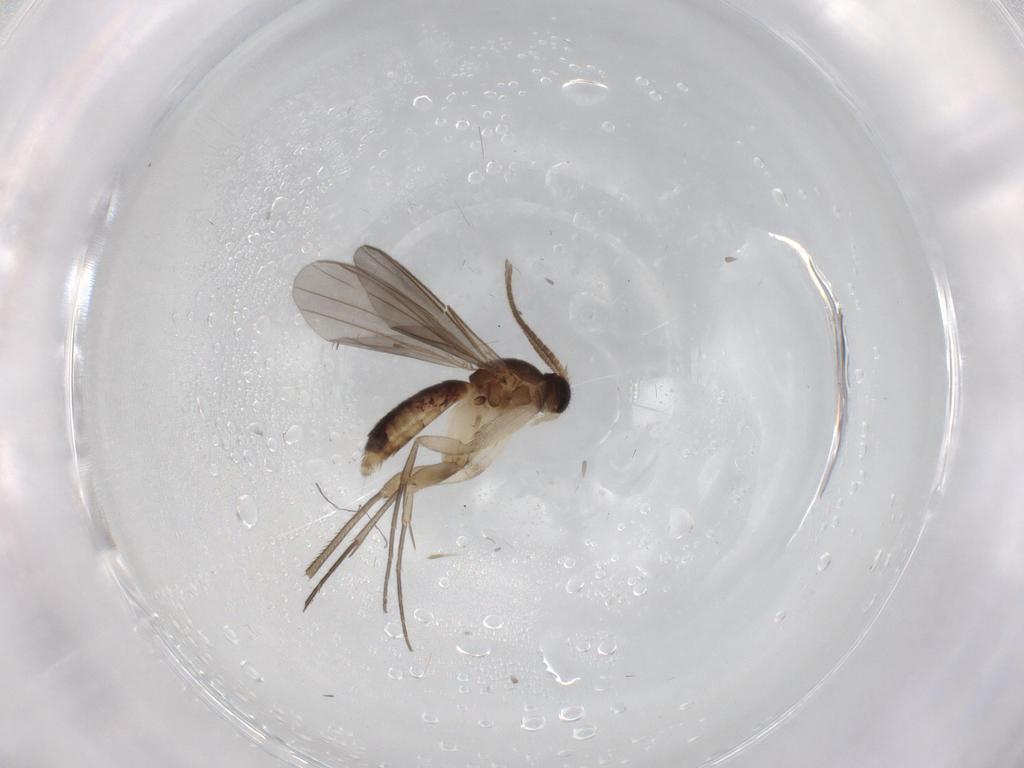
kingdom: Animalia
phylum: Arthropoda
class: Insecta
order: Diptera
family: Mycetophilidae
